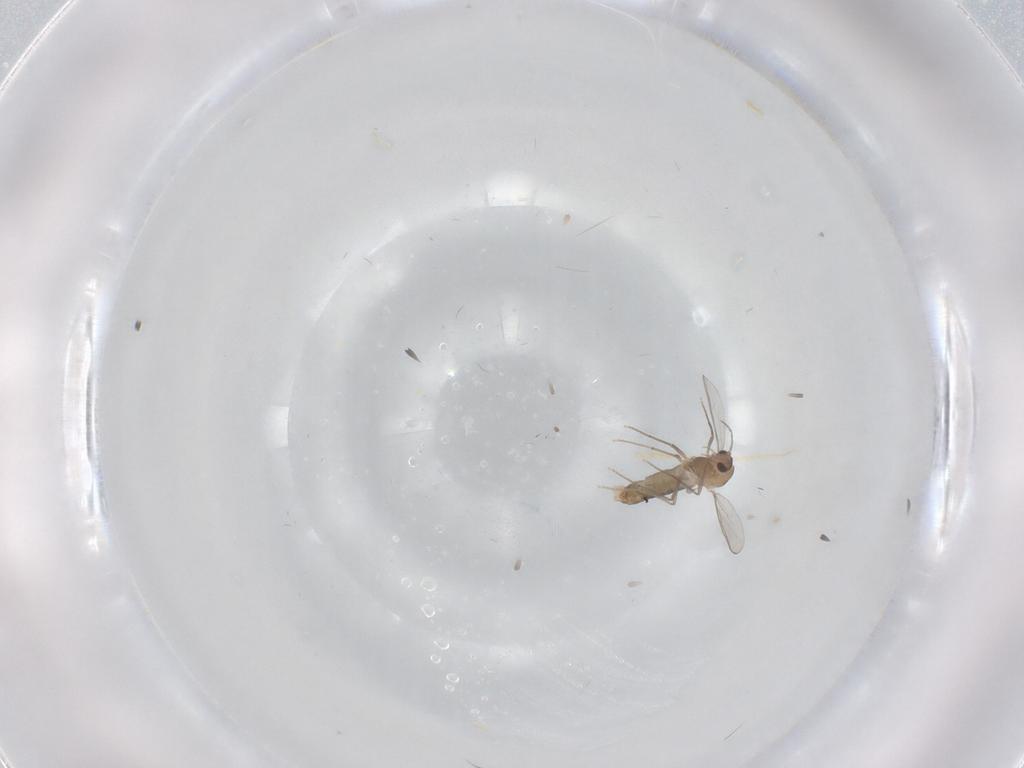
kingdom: Animalia
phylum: Arthropoda
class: Insecta
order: Diptera
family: Chironomidae
